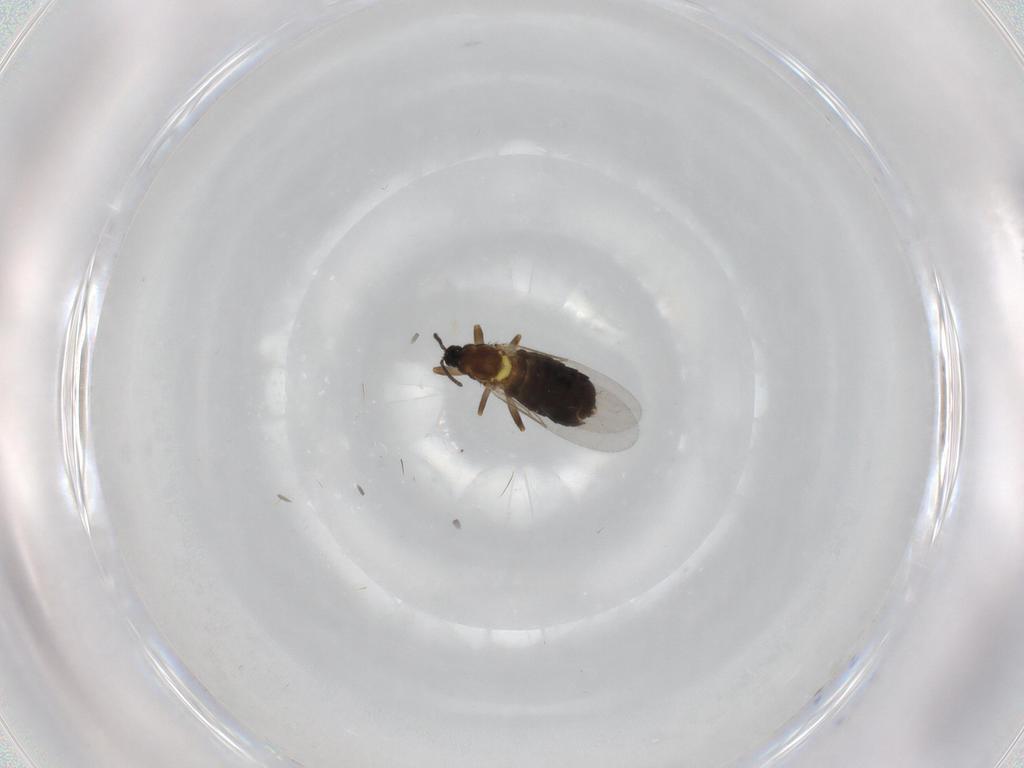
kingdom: Animalia
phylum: Arthropoda
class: Insecta
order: Diptera
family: Scatopsidae
